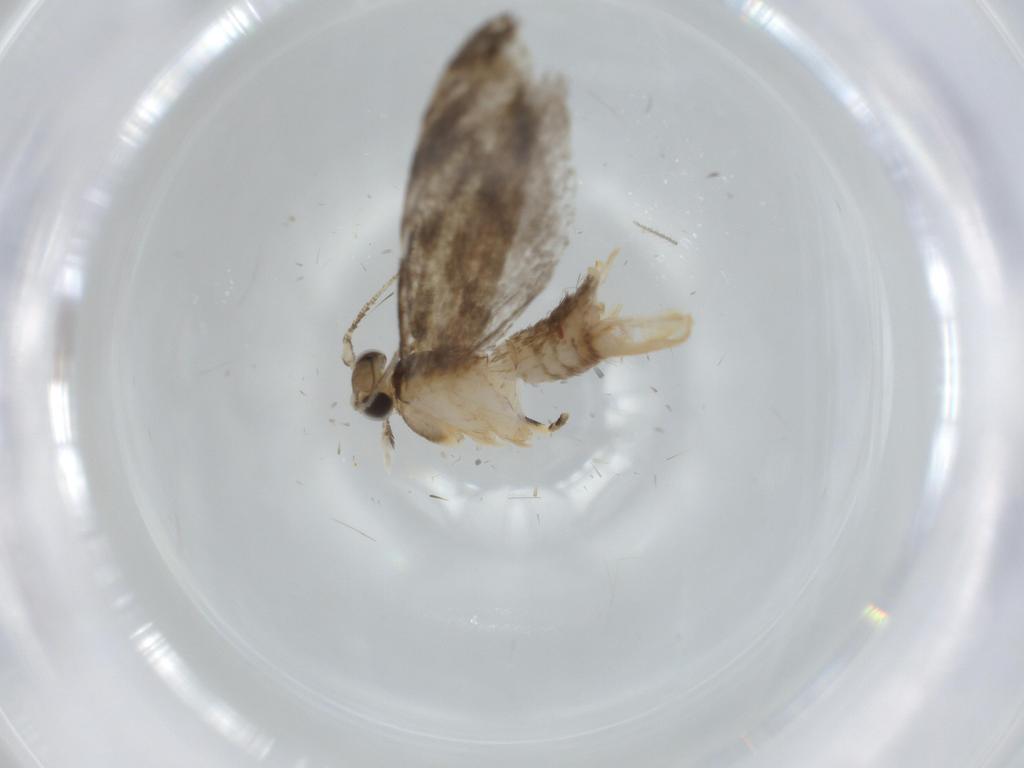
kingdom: Animalia
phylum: Arthropoda
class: Insecta
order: Lepidoptera
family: Tineidae
